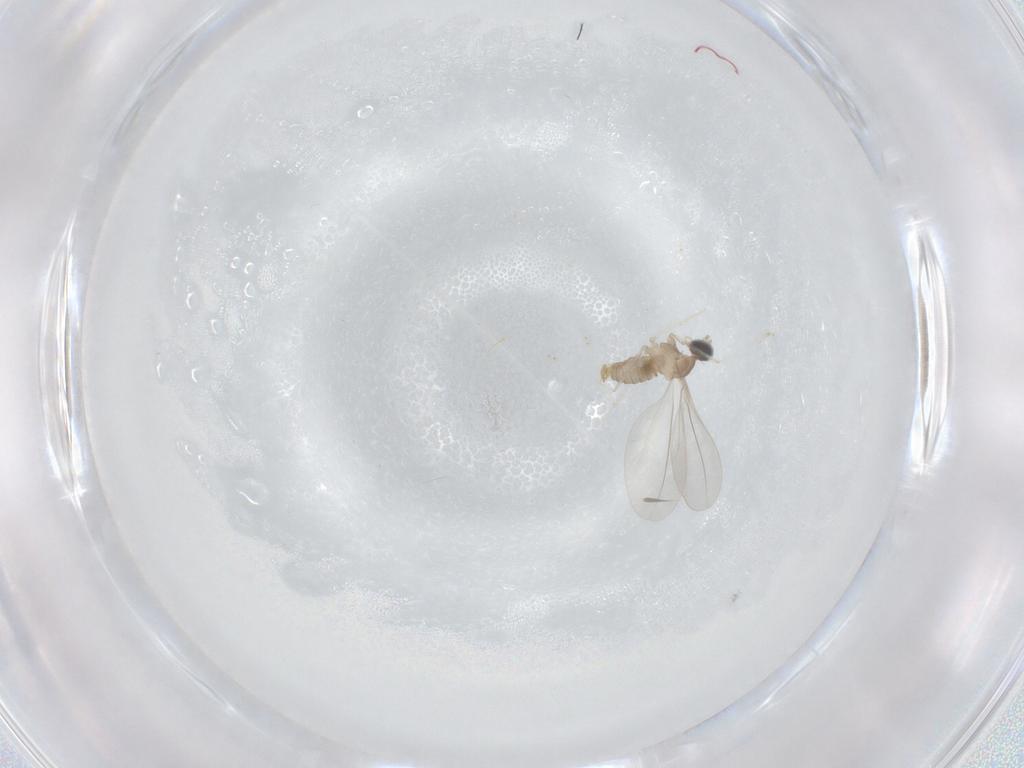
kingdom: Animalia
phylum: Arthropoda
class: Insecta
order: Diptera
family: Cecidomyiidae
